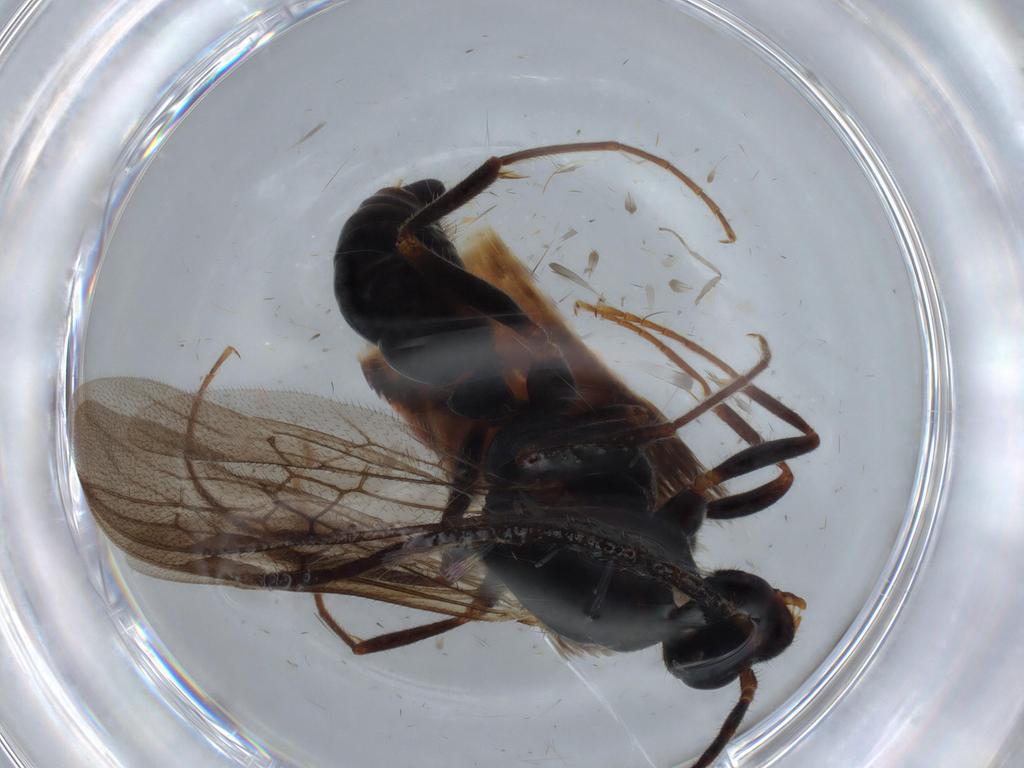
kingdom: Animalia
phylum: Arthropoda
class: Insecta
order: Hymenoptera
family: Formicidae
